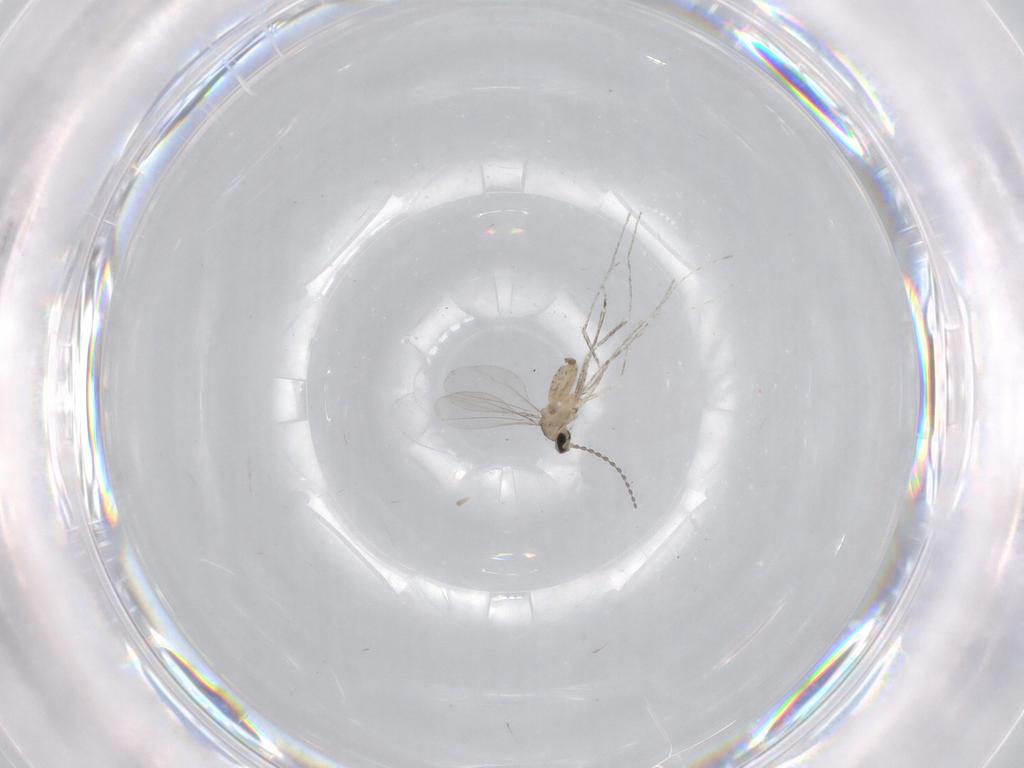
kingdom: Animalia
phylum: Arthropoda
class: Insecta
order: Diptera
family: Cecidomyiidae
